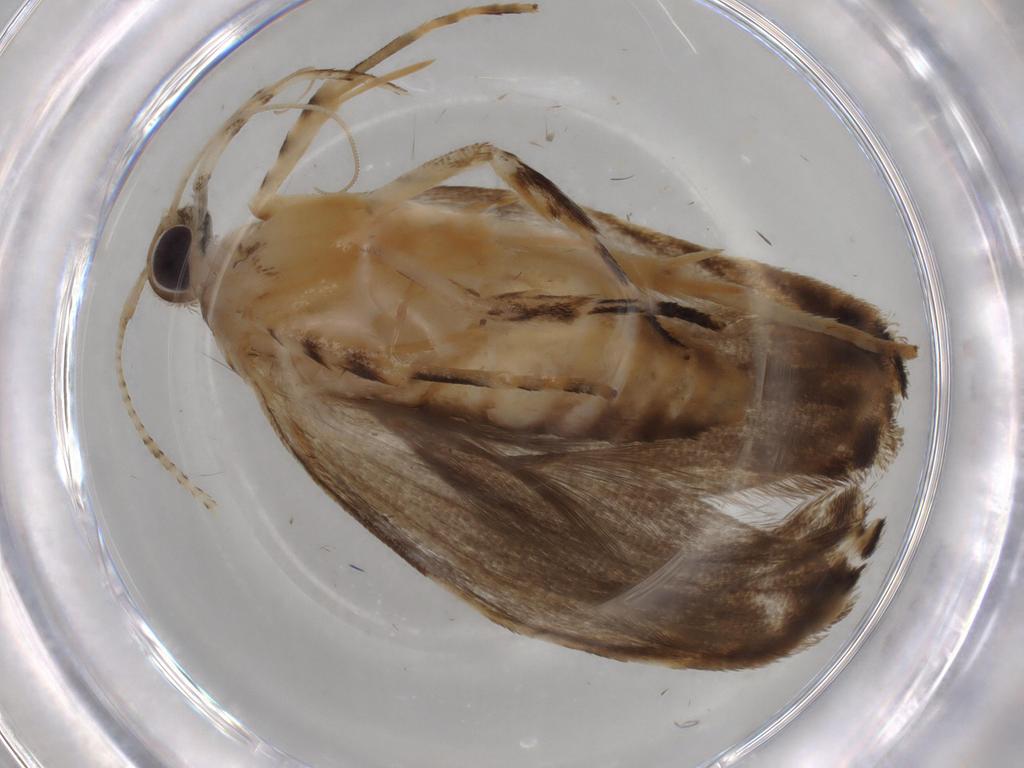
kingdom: Animalia
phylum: Arthropoda
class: Insecta
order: Lepidoptera
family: Gelechiidae
